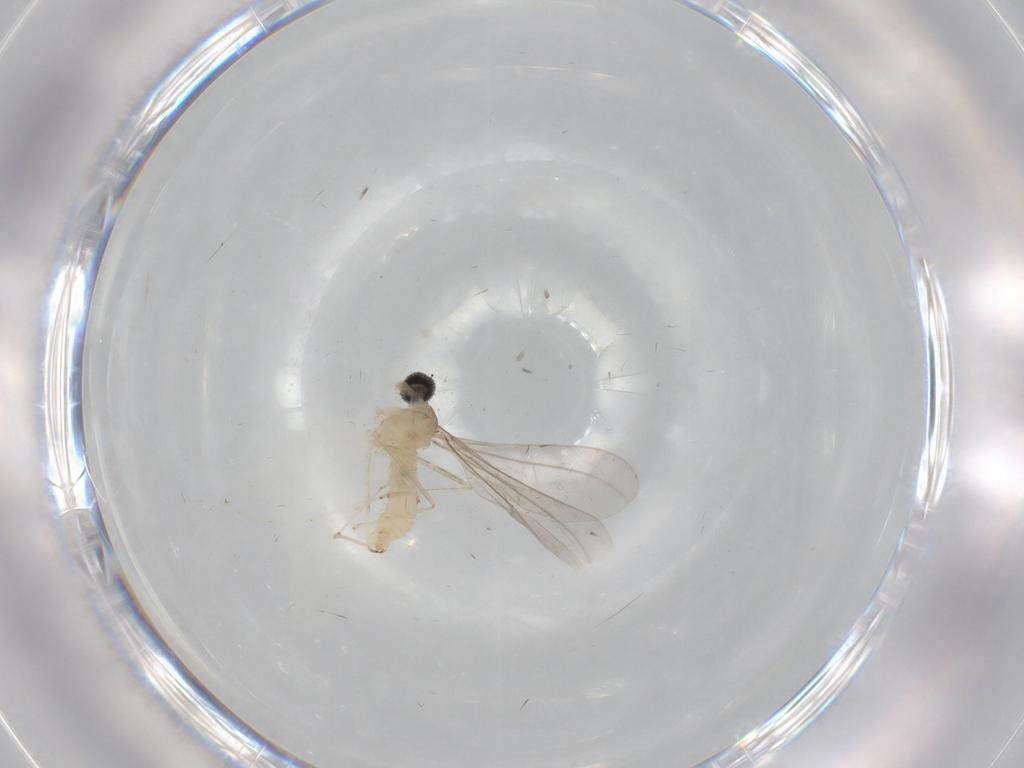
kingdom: Animalia
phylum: Arthropoda
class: Insecta
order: Diptera
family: Cecidomyiidae
